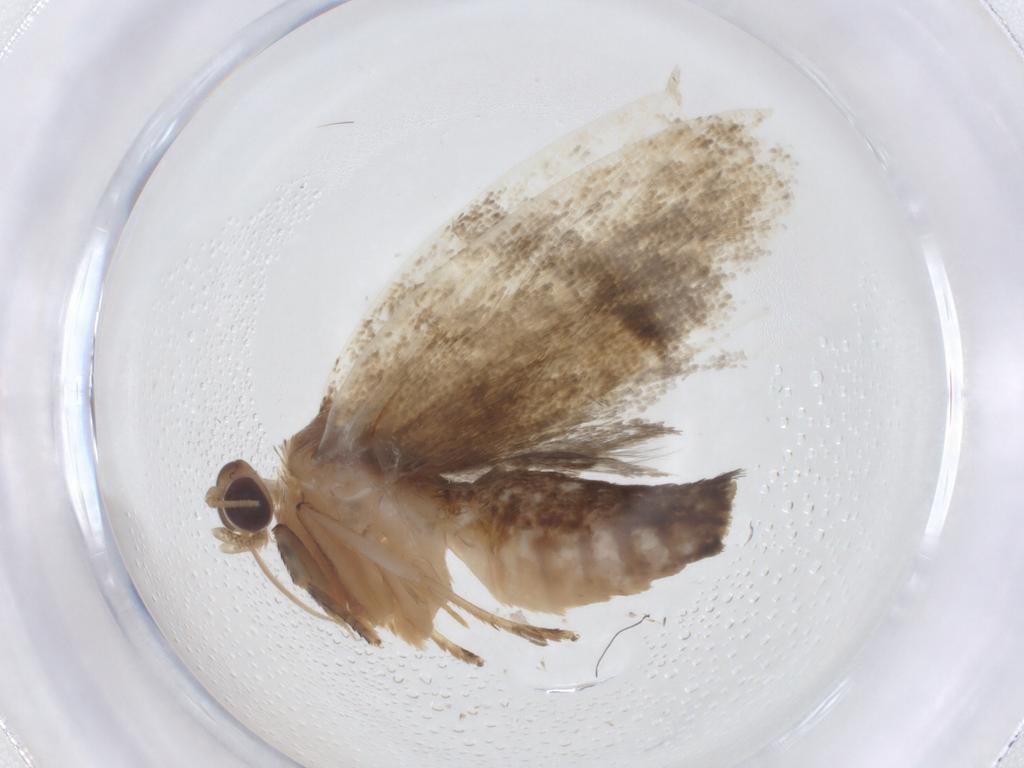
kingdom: Animalia
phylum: Arthropoda
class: Insecta
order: Lepidoptera
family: Tortricidae
